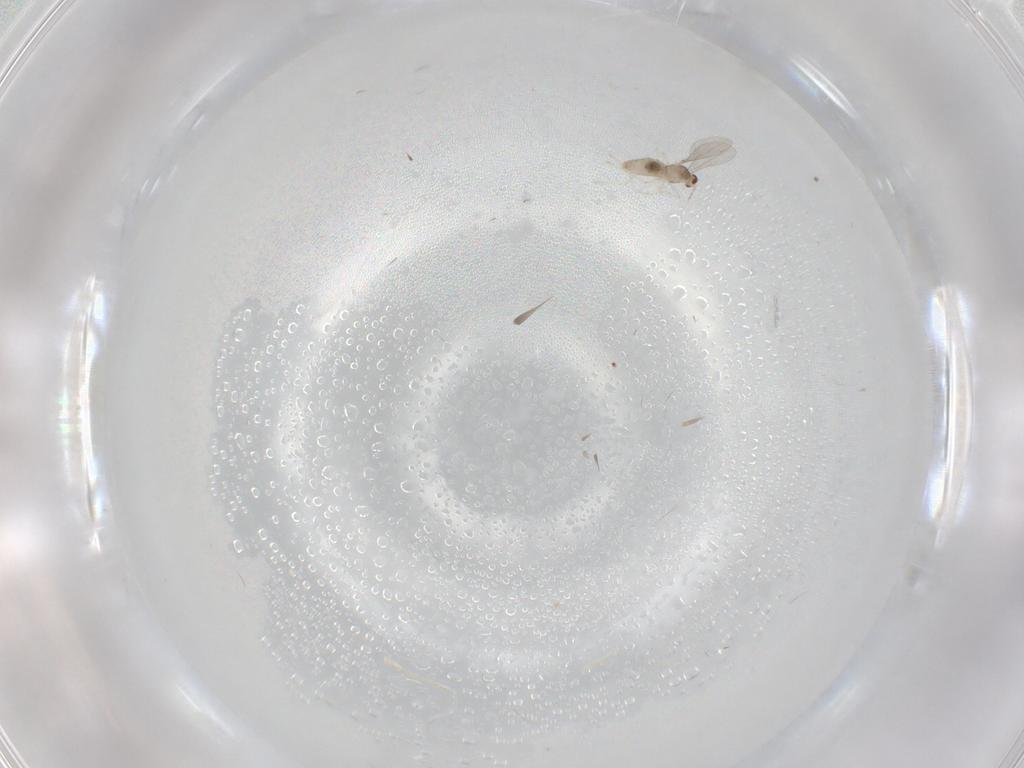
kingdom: Animalia
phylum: Arthropoda
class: Insecta
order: Diptera
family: Cecidomyiidae
